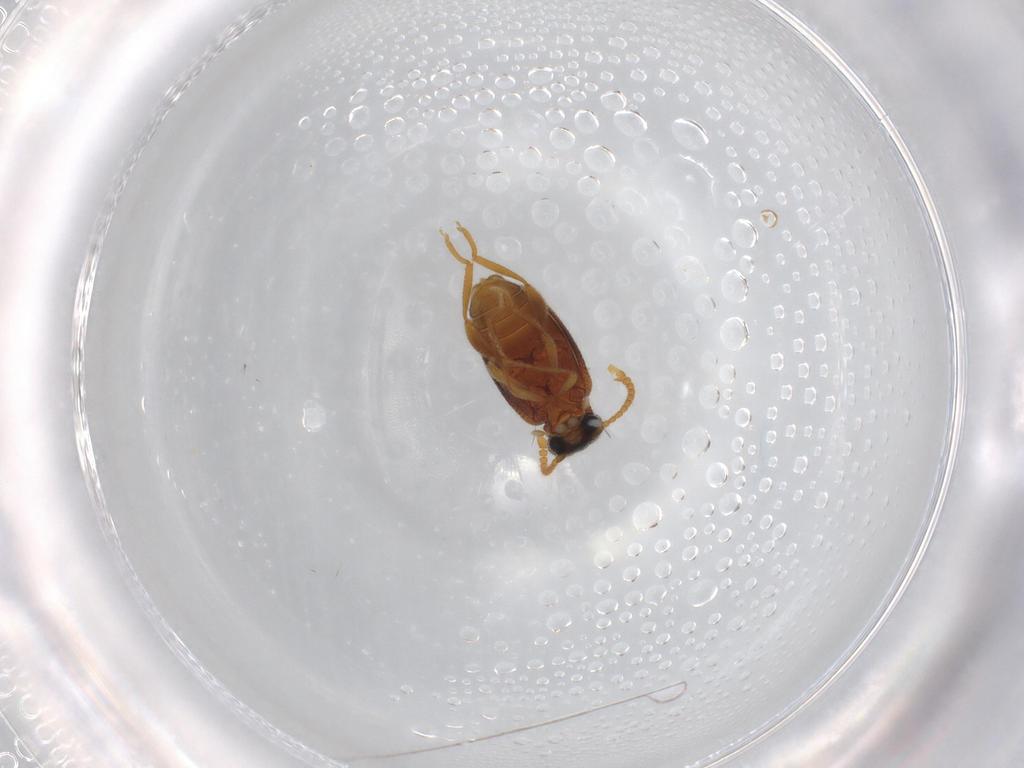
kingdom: Animalia
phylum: Arthropoda
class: Insecta
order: Coleoptera
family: Aderidae
